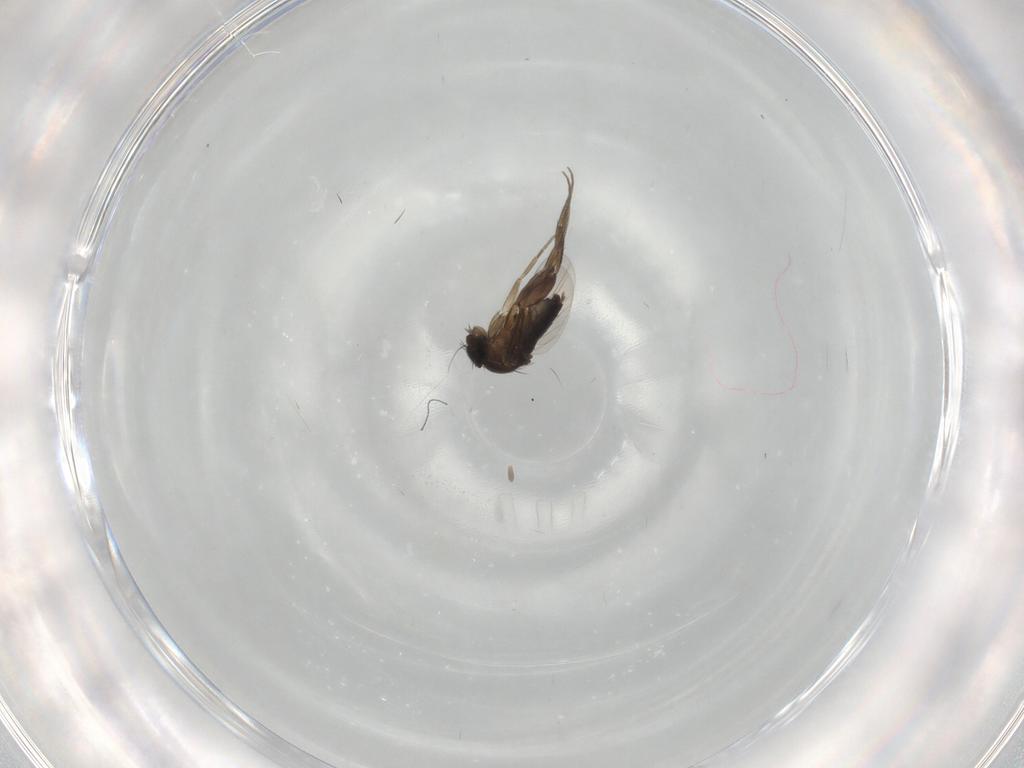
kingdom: Animalia
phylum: Arthropoda
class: Insecta
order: Diptera
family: Phoridae
